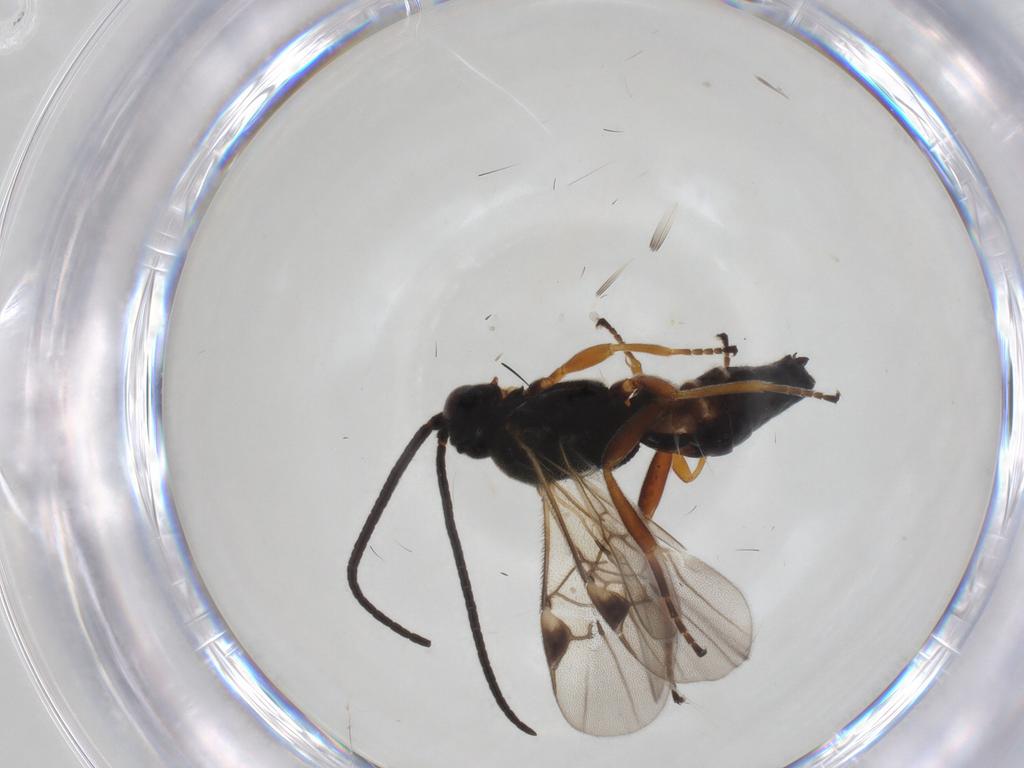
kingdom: Animalia
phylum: Arthropoda
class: Insecta
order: Hymenoptera
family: Braconidae
